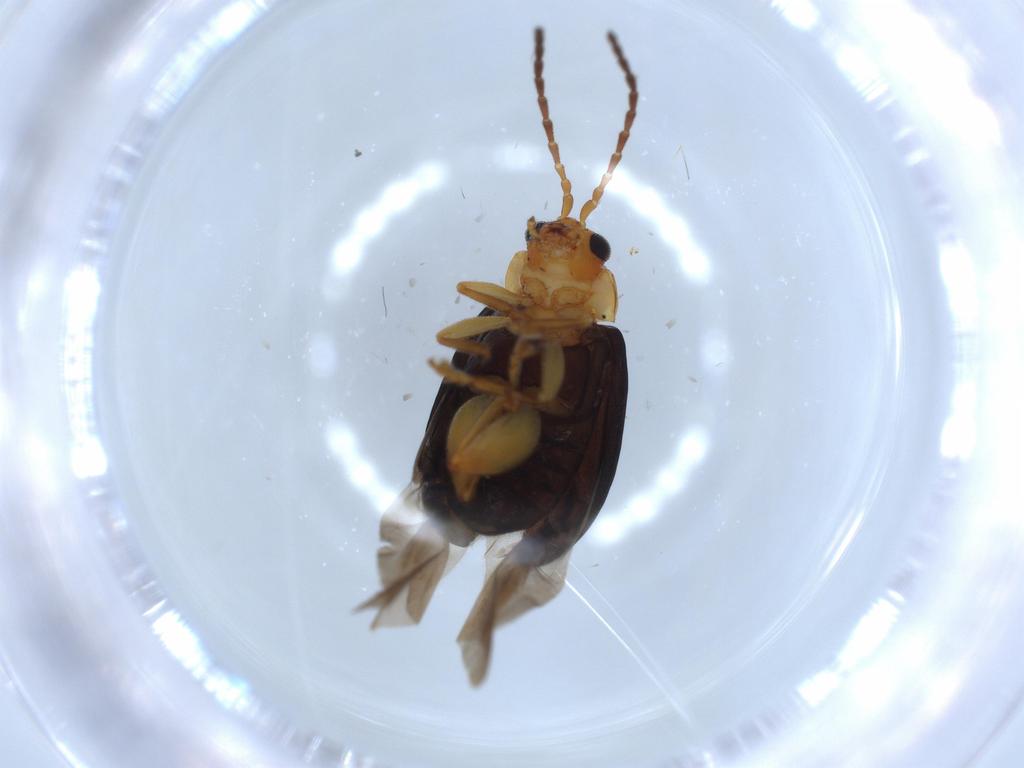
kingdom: Animalia
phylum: Arthropoda
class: Insecta
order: Coleoptera
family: Chrysomelidae
